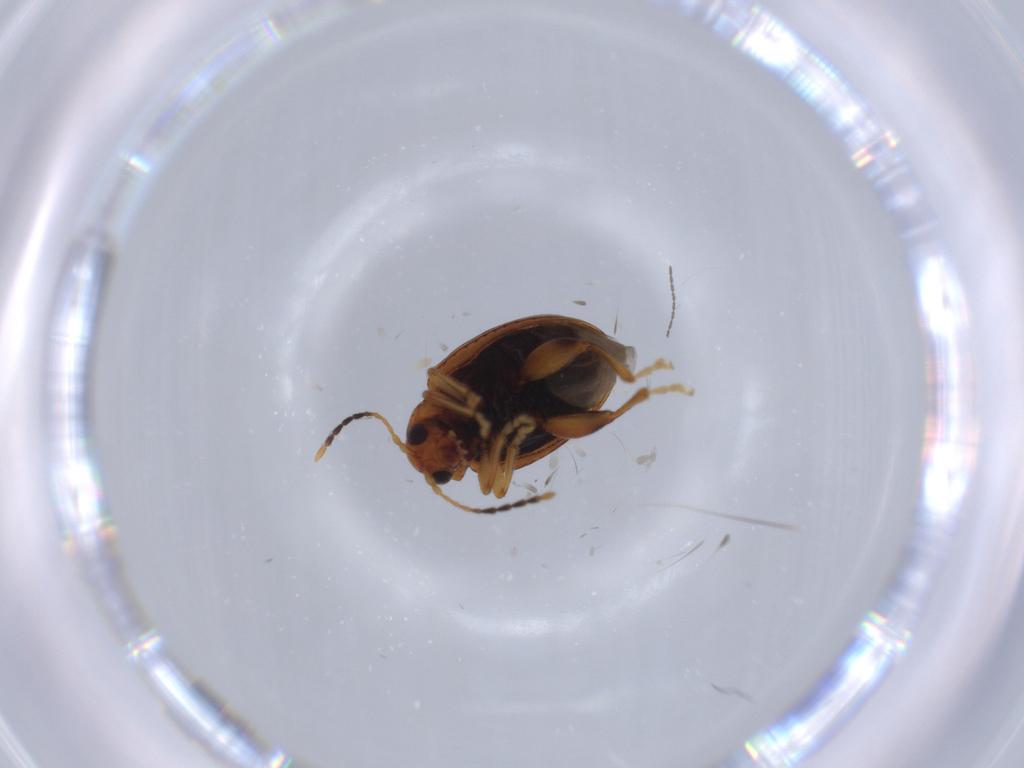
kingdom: Animalia
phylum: Arthropoda
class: Insecta
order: Coleoptera
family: Chrysomelidae
